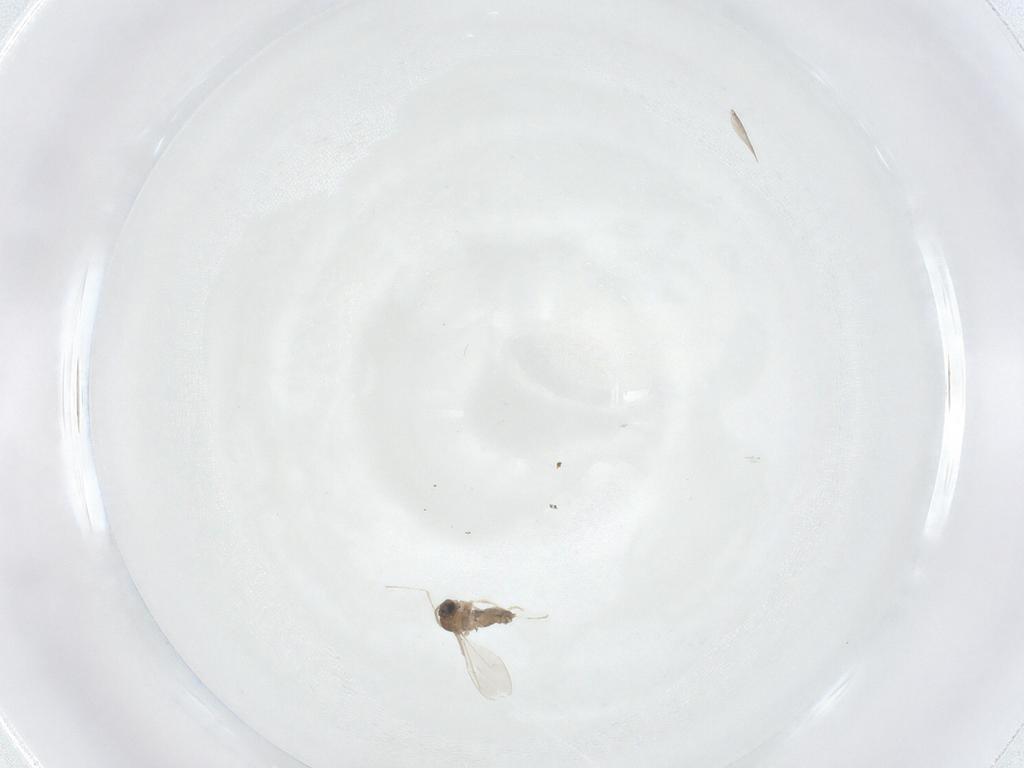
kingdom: Animalia
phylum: Arthropoda
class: Insecta
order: Diptera
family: Cecidomyiidae
